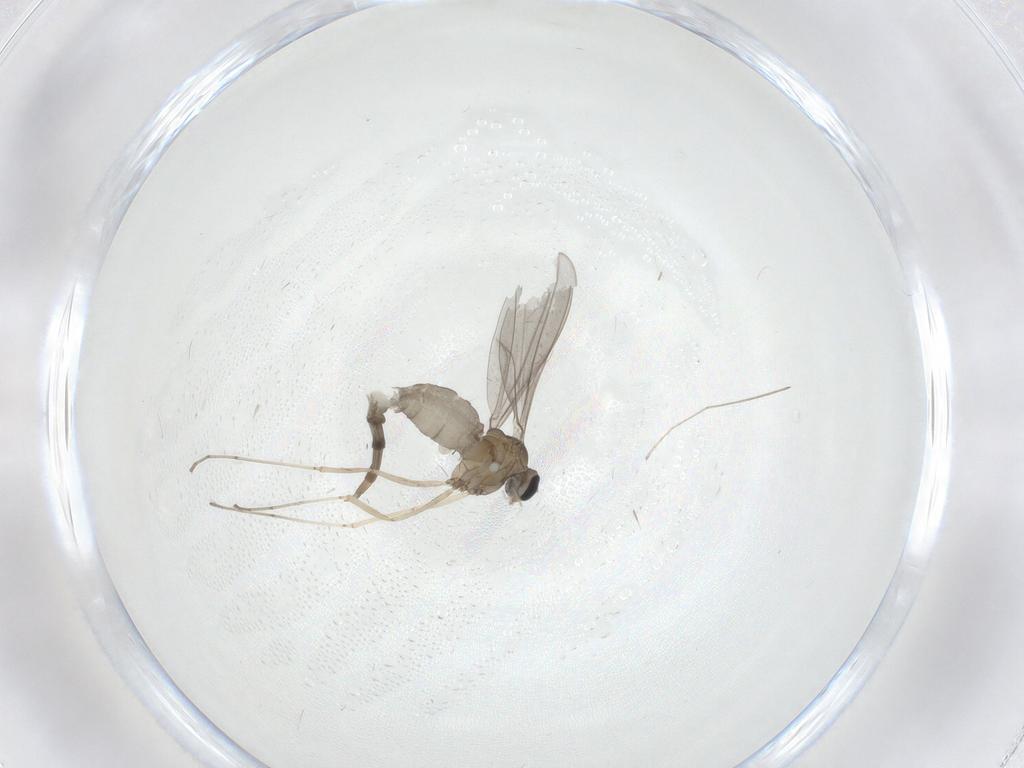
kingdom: Animalia
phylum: Arthropoda
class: Insecta
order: Diptera
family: Cecidomyiidae
